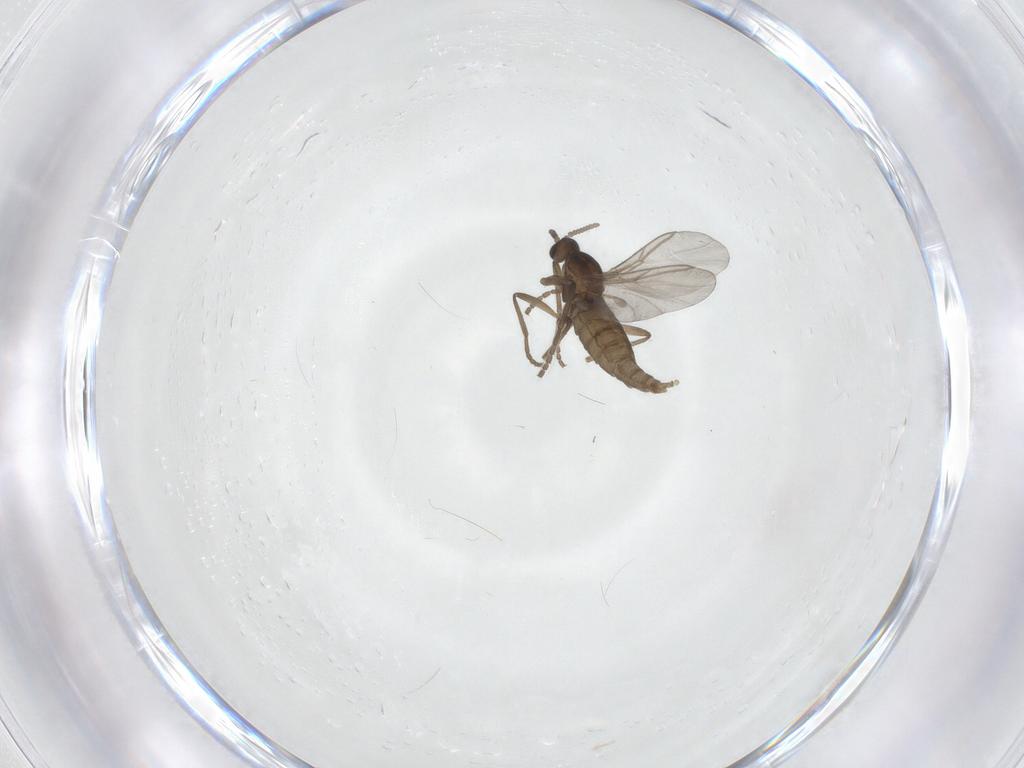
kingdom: Animalia
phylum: Arthropoda
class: Insecta
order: Diptera
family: Cecidomyiidae
